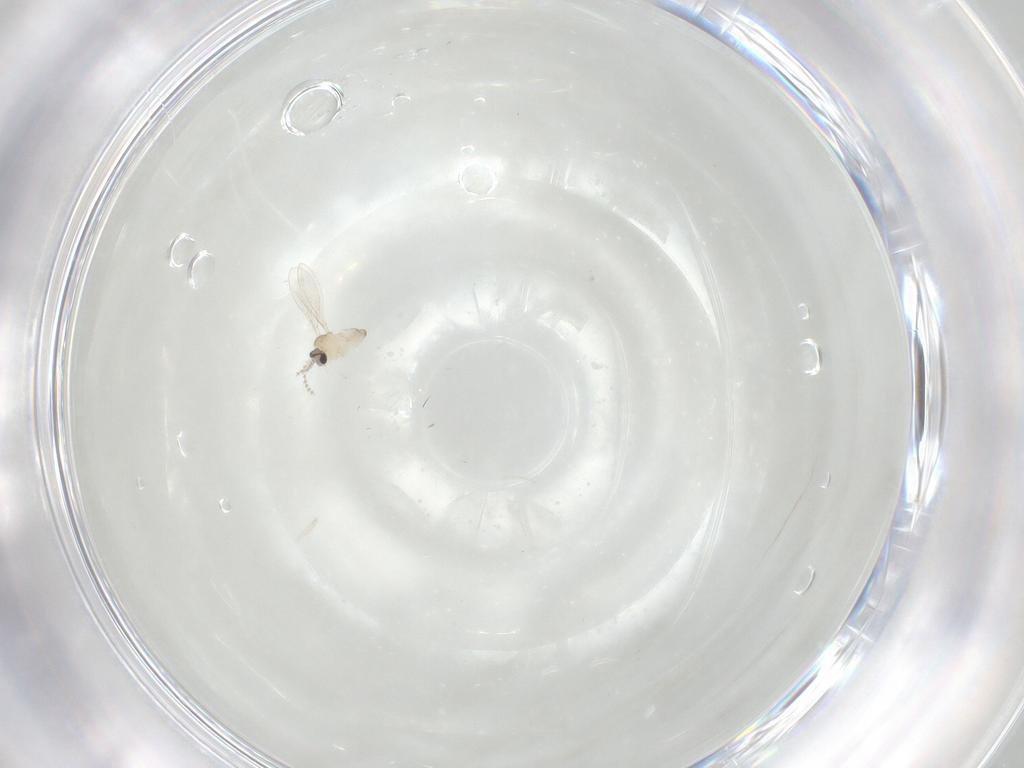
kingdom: Animalia
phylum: Arthropoda
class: Insecta
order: Diptera
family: Cecidomyiidae
